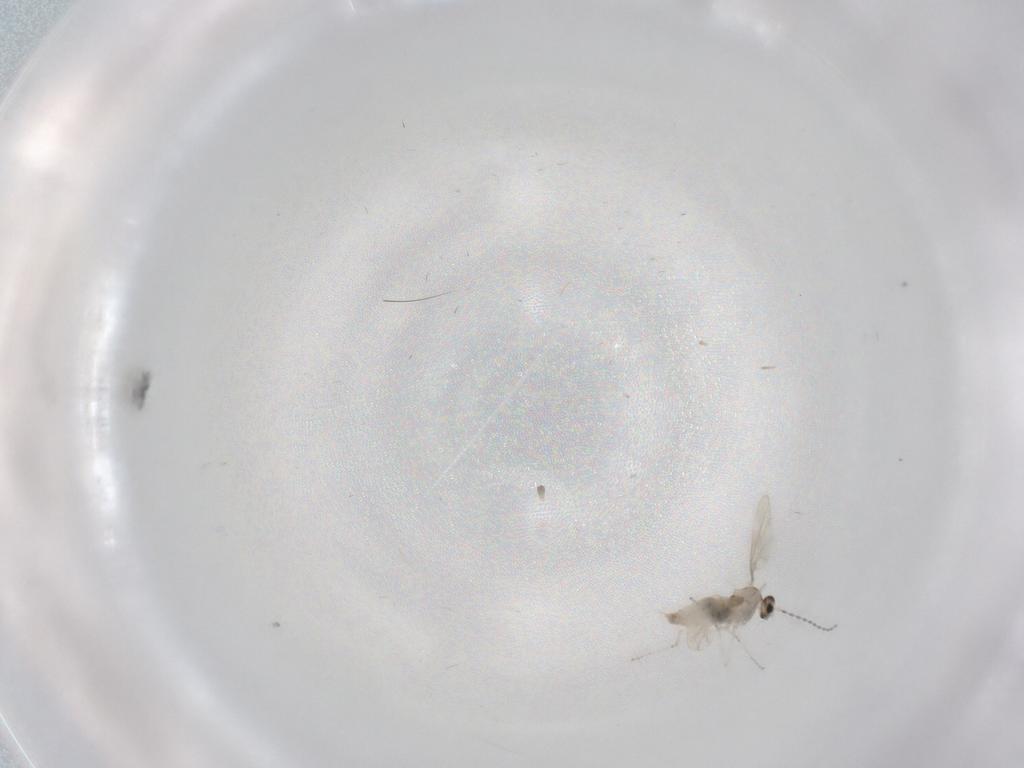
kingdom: Animalia
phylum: Arthropoda
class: Insecta
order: Diptera
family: Cecidomyiidae
